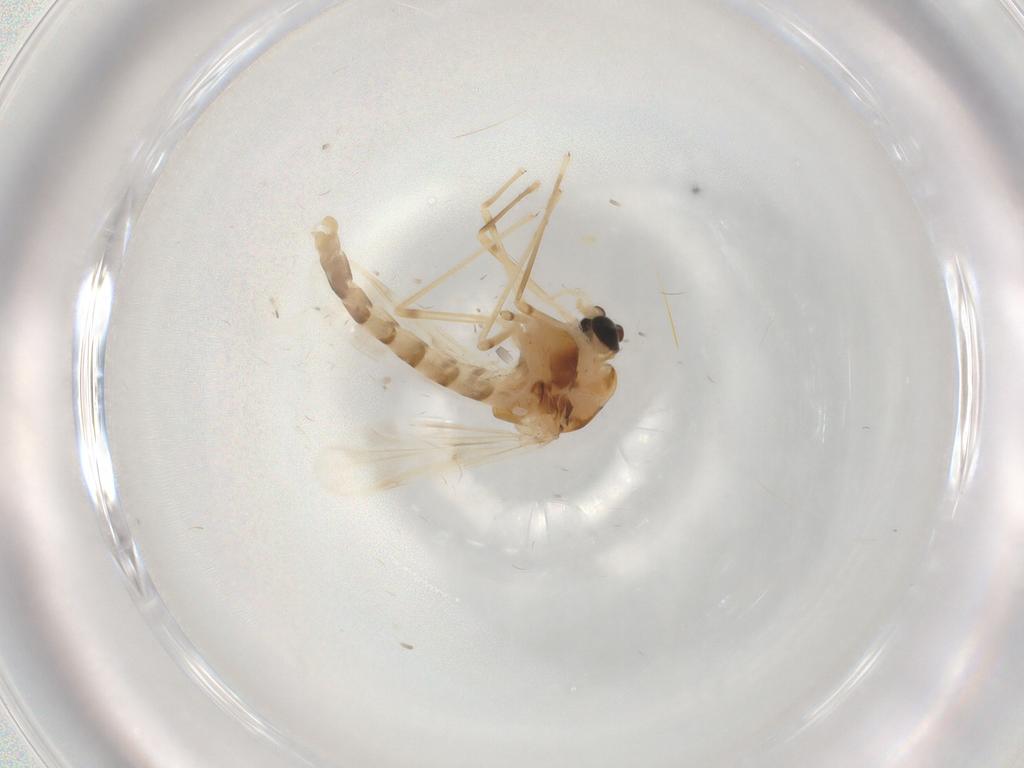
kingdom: Animalia
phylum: Arthropoda
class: Insecta
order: Diptera
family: Chironomidae
